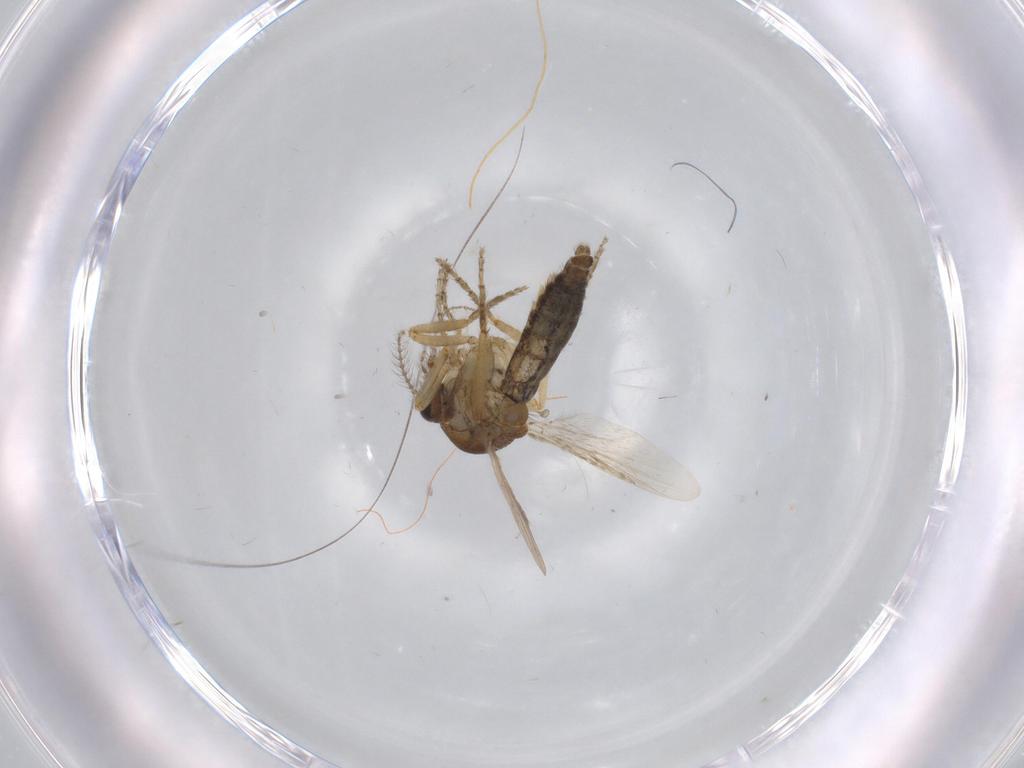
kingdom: Animalia
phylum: Arthropoda
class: Insecta
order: Diptera
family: Ceratopogonidae
